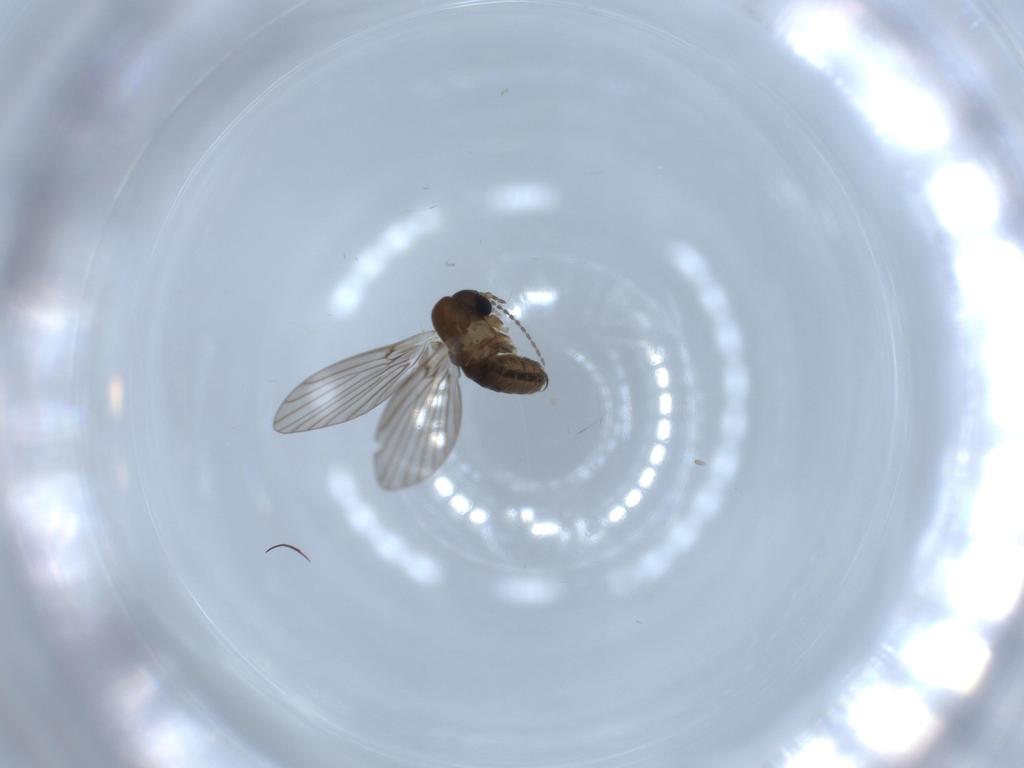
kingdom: Animalia
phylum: Arthropoda
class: Insecta
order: Diptera
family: Psychodidae
